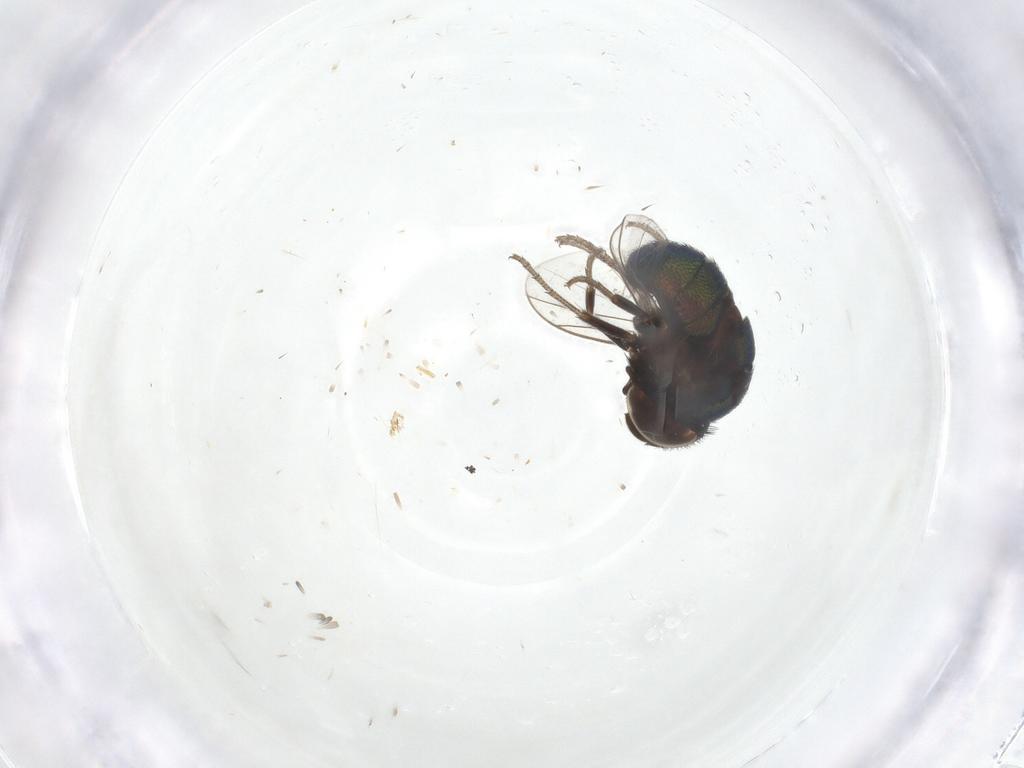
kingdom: Animalia
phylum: Arthropoda
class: Insecta
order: Diptera
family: Cryptochetidae
